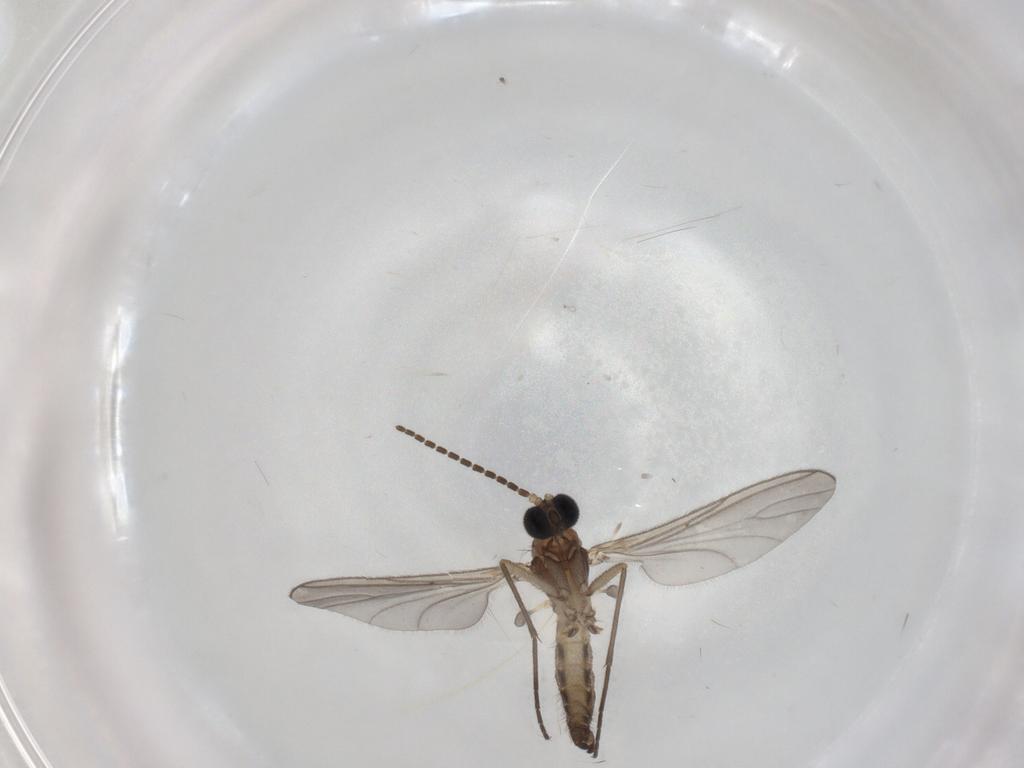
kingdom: Animalia
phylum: Arthropoda
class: Insecta
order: Diptera
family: Sciaridae
